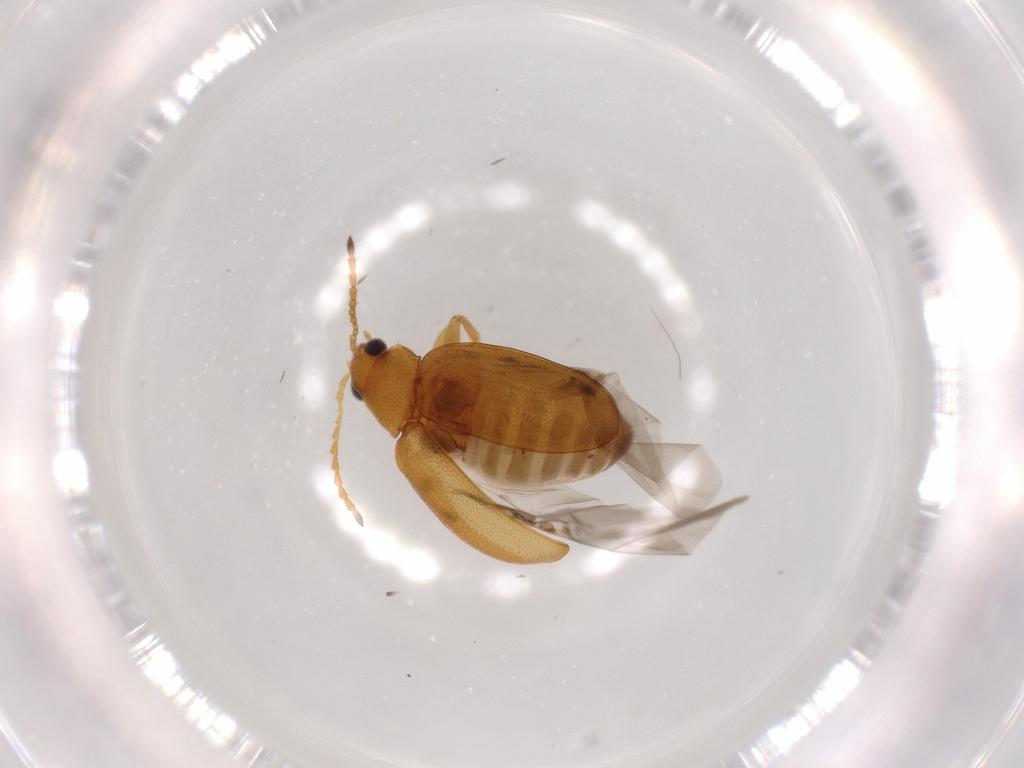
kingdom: Animalia
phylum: Arthropoda
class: Insecta
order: Coleoptera
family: Chrysomelidae
